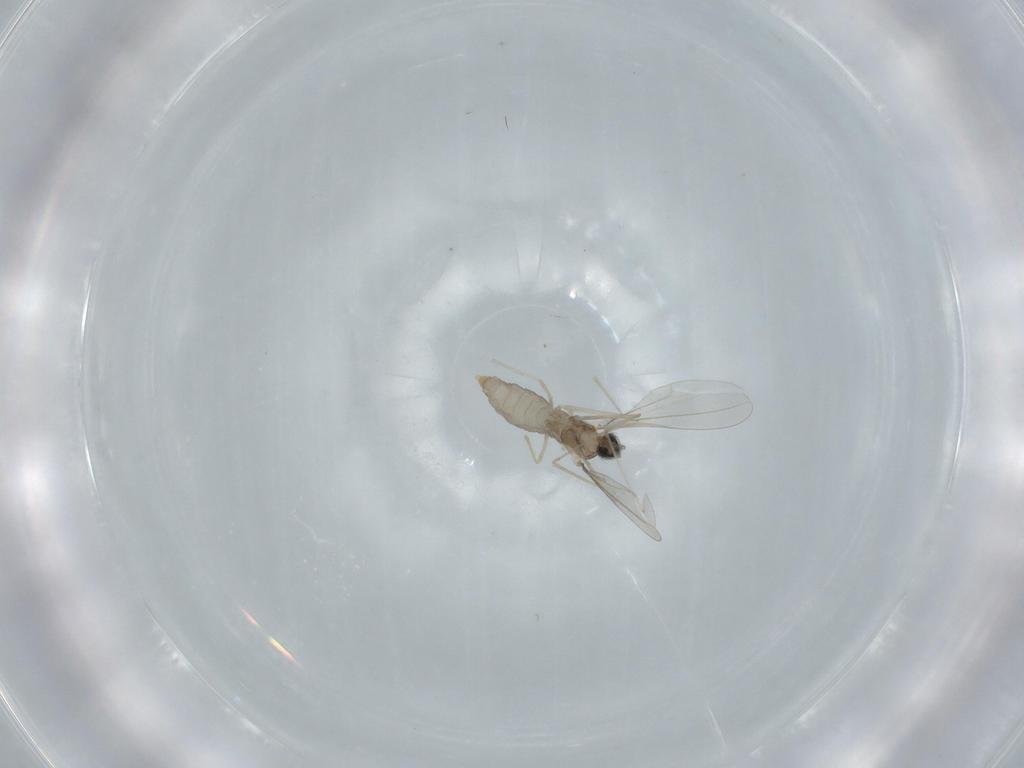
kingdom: Animalia
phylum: Arthropoda
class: Insecta
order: Diptera
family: Cecidomyiidae
